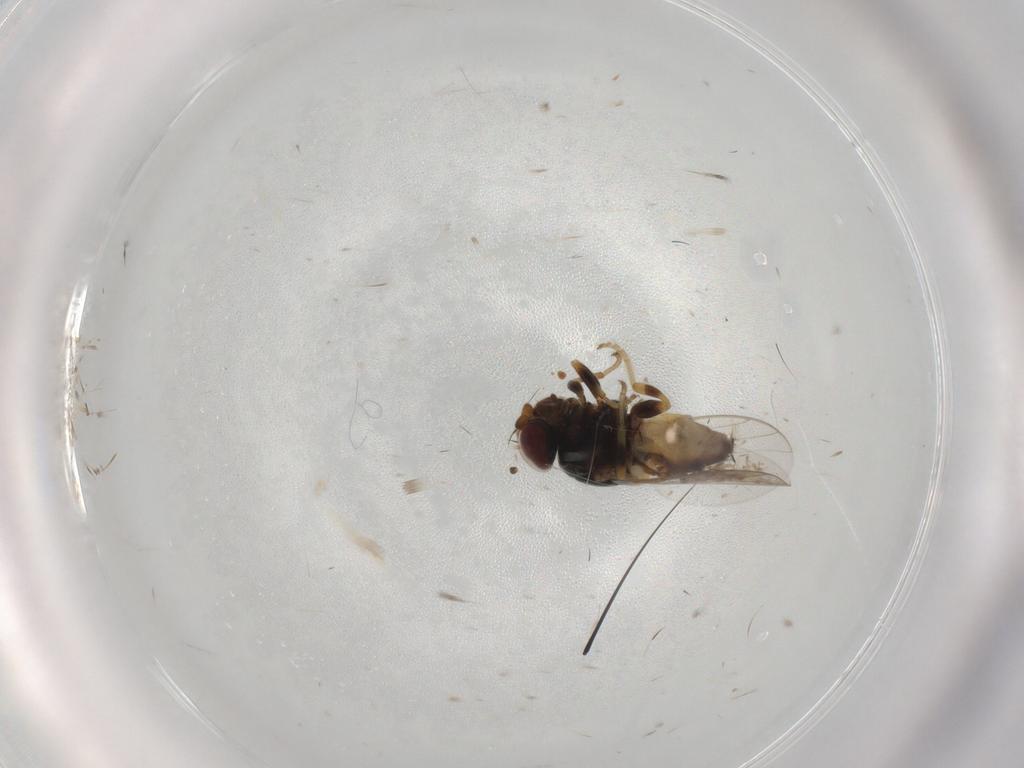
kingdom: Animalia
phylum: Arthropoda
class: Insecta
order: Diptera
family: Chloropidae
